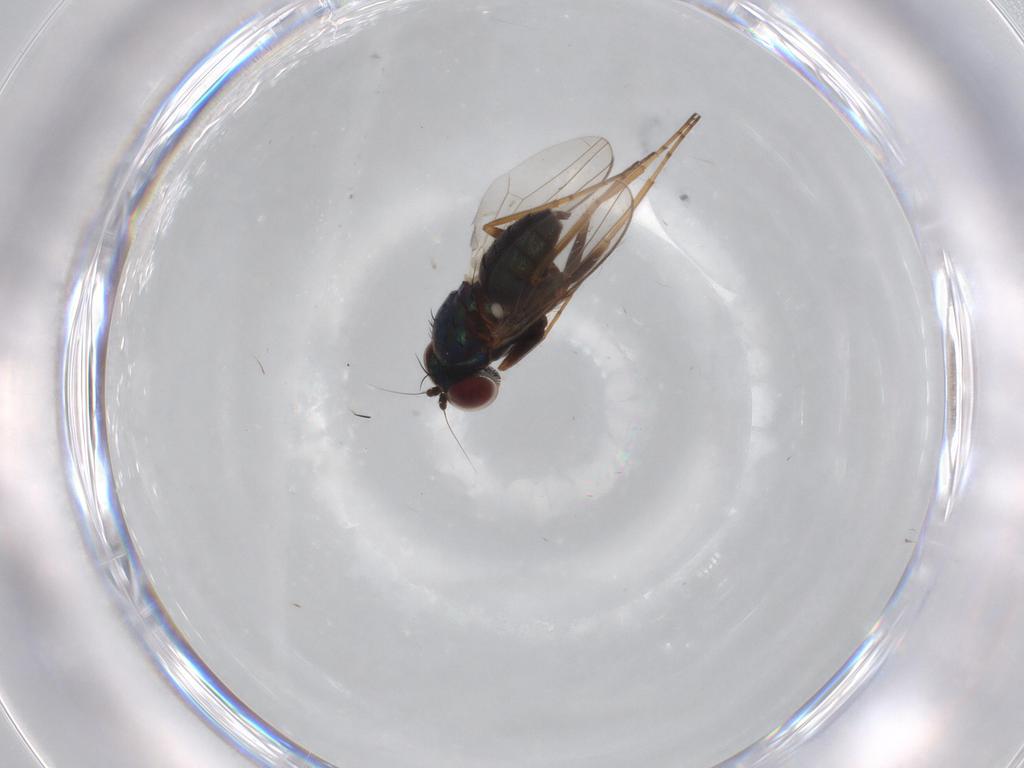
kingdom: Animalia
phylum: Arthropoda
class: Insecta
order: Diptera
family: Dolichopodidae
